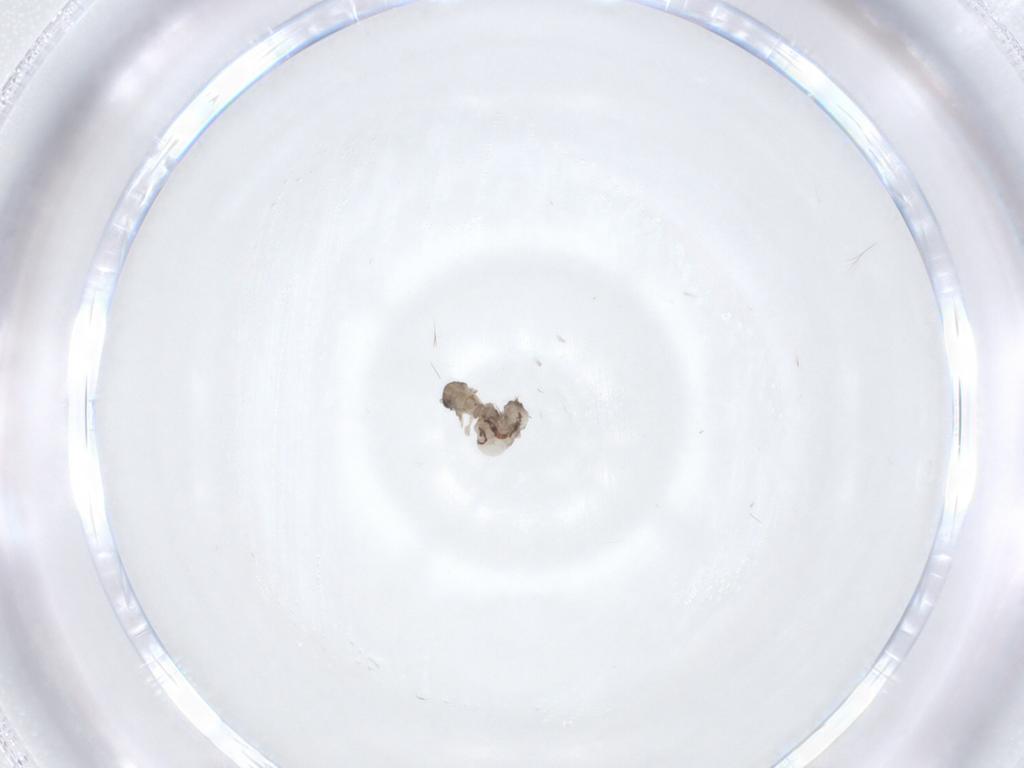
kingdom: Animalia
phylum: Arthropoda
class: Insecta
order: Diptera
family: Psychodidae
